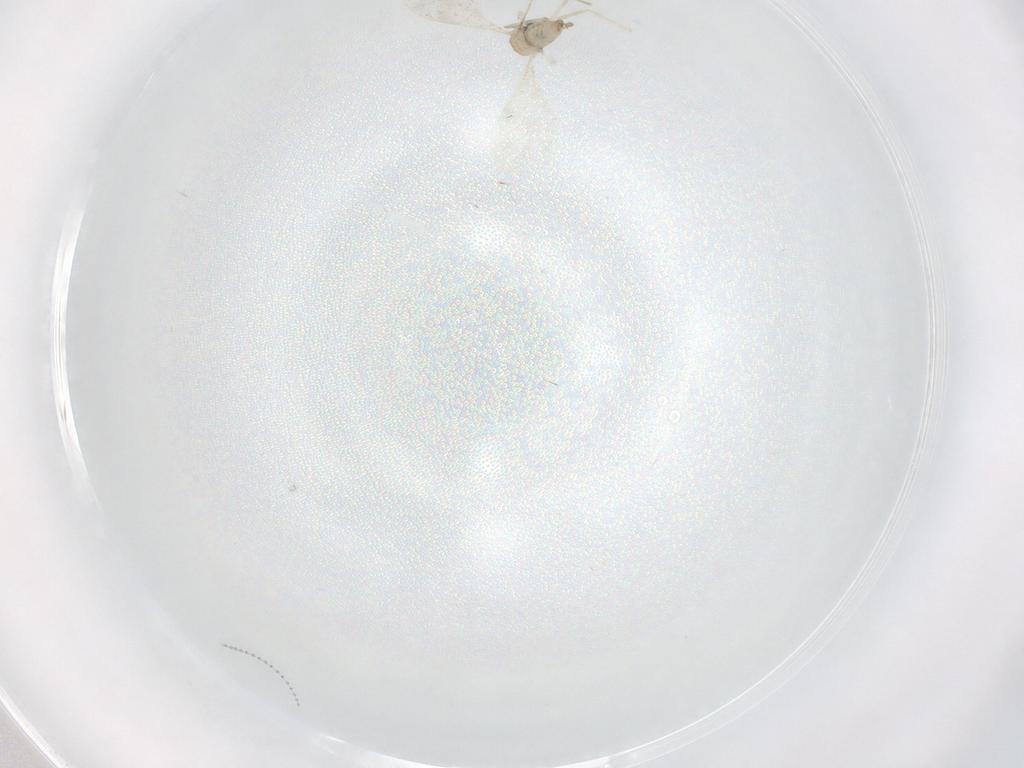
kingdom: Animalia
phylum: Arthropoda
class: Insecta
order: Diptera
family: Cecidomyiidae
